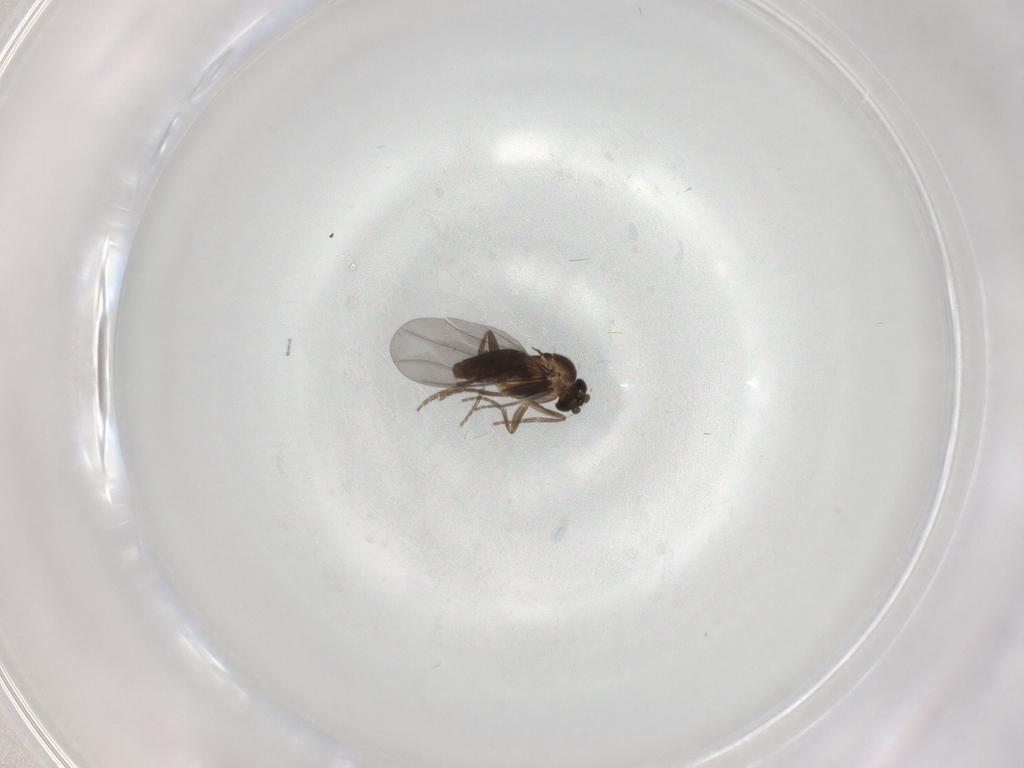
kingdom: Animalia
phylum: Arthropoda
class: Insecta
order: Diptera
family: Phoridae
